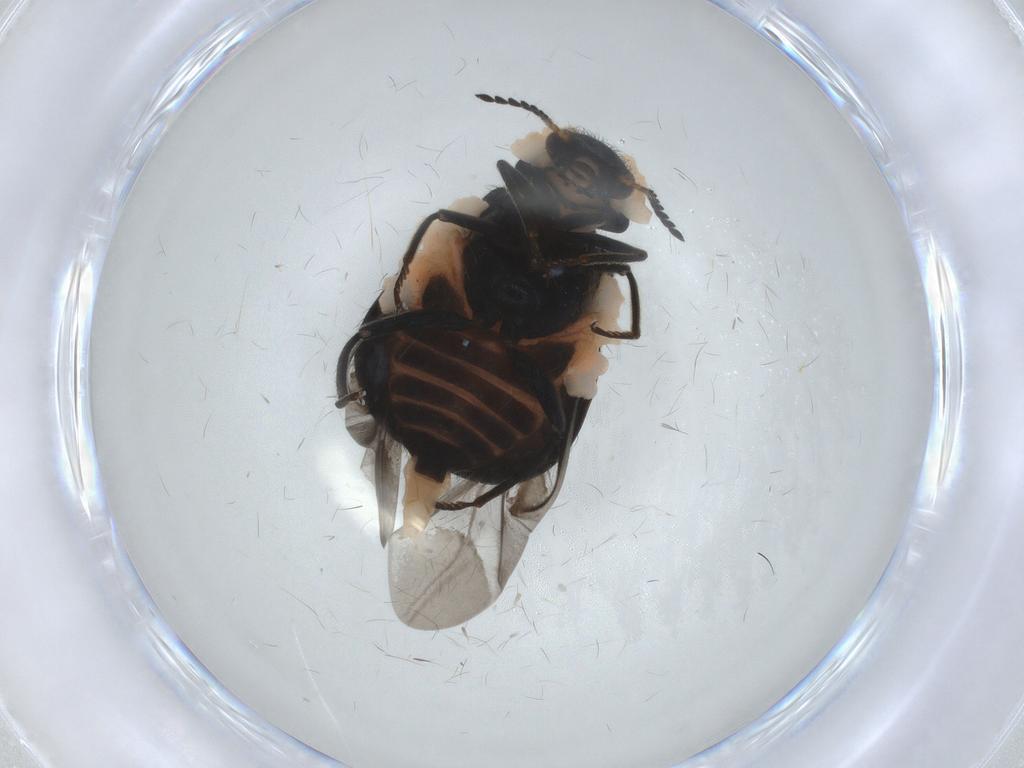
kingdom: Animalia
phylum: Arthropoda
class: Insecta
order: Coleoptera
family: Melyridae
